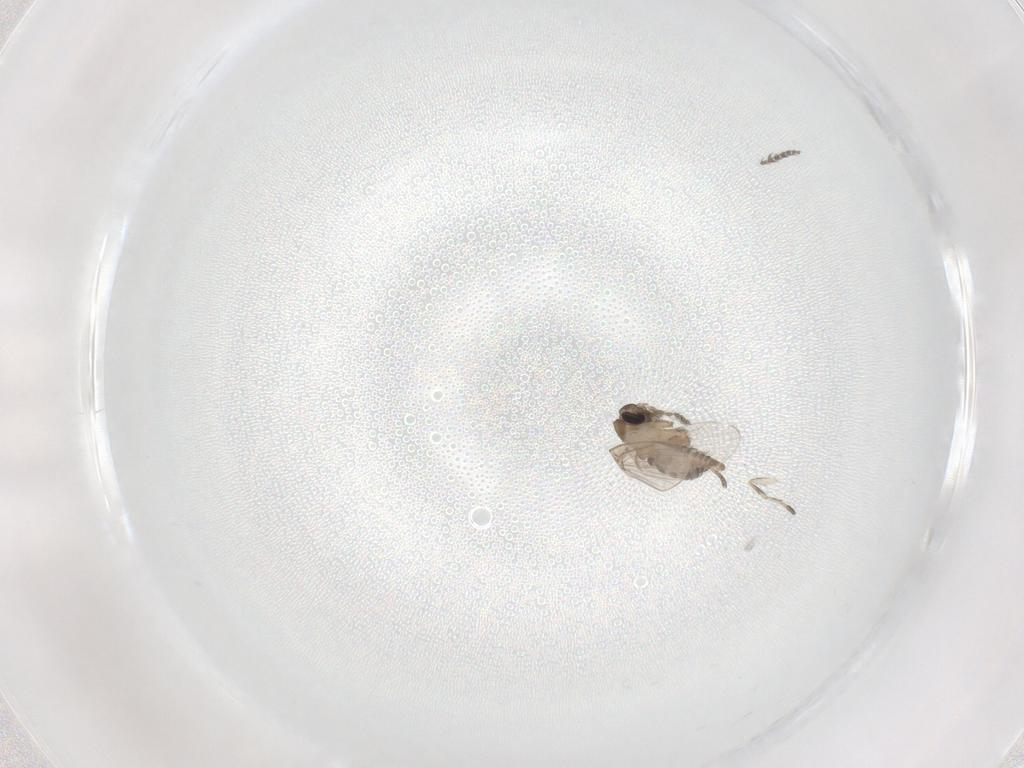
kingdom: Animalia
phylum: Arthropoda
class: Insecta
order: Diptera
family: Psychodidae
